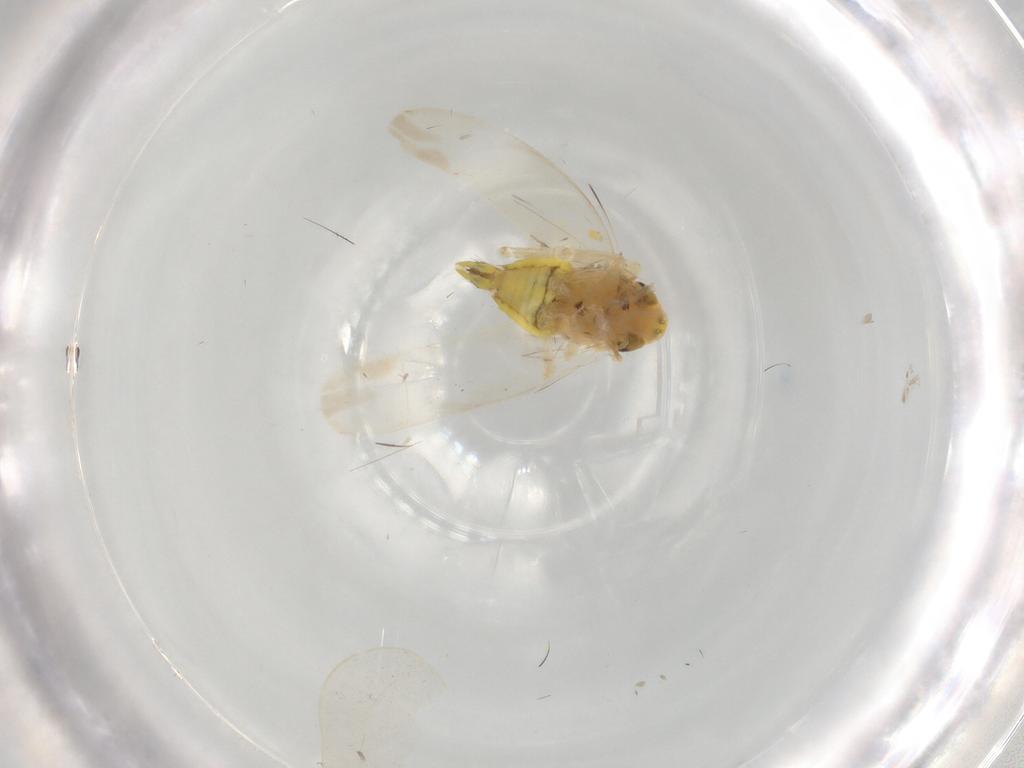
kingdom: Animalia
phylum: Arthropoda
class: Insecta
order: Hemiptera
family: Cicadellidae
